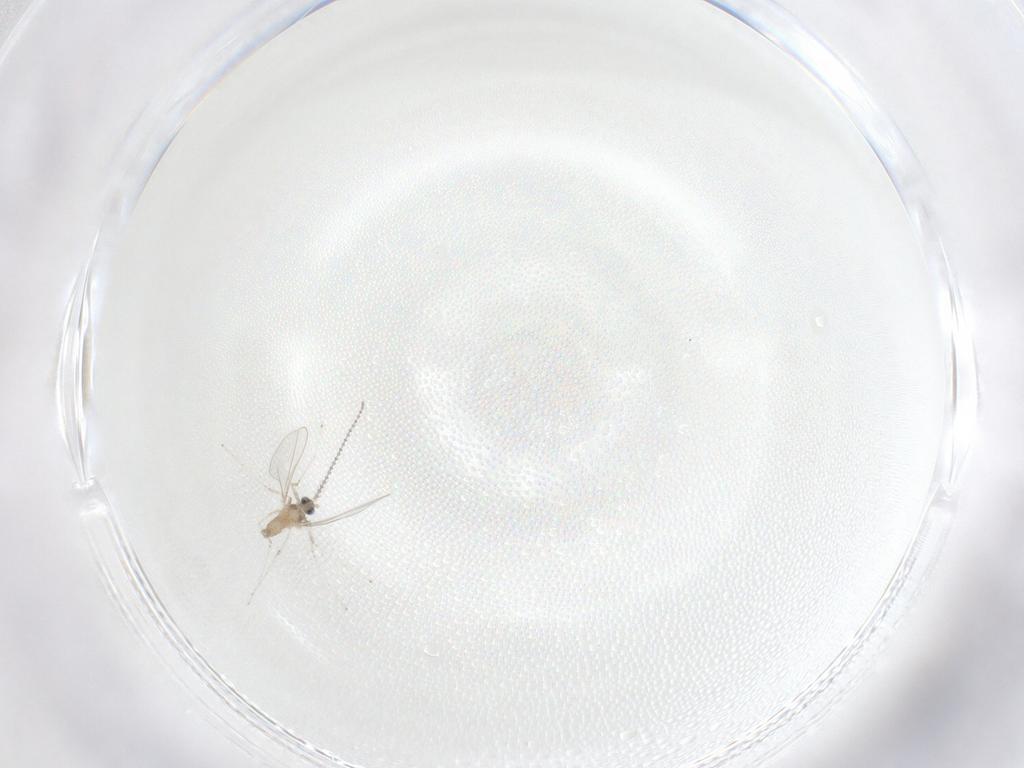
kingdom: Animalia
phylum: Arthropoda
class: Insecta
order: Diptera
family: Cecidomyiidae
